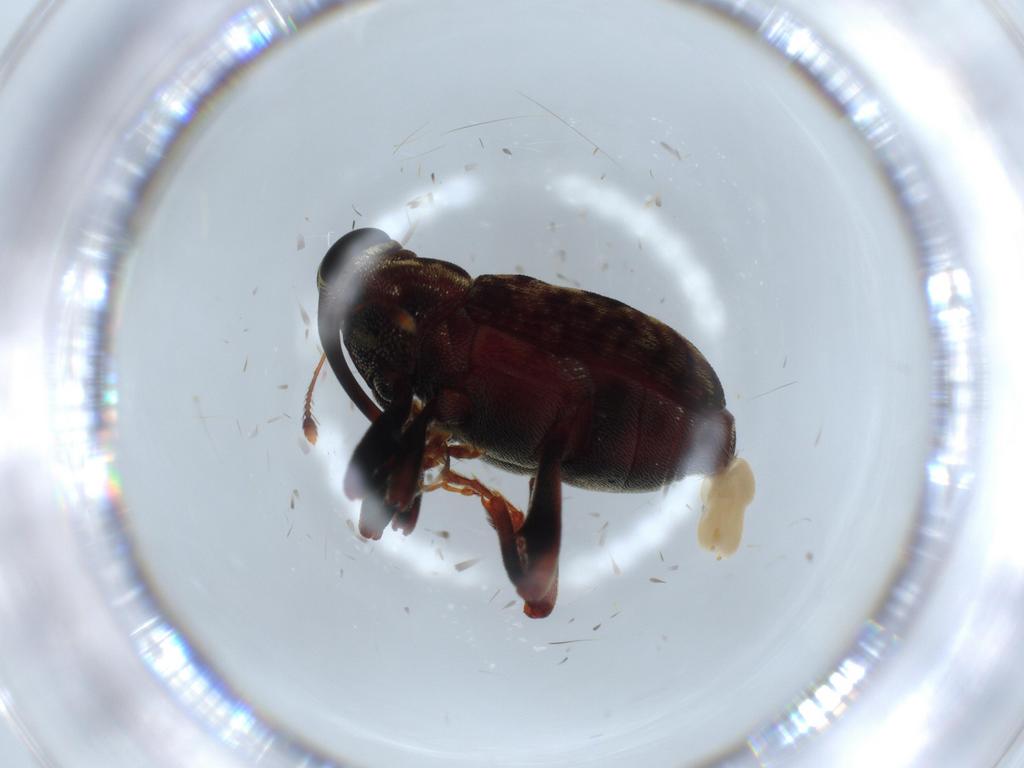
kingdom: Animalia
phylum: Arthropoda
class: Insecta
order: Coleoptera
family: Curculionidae
